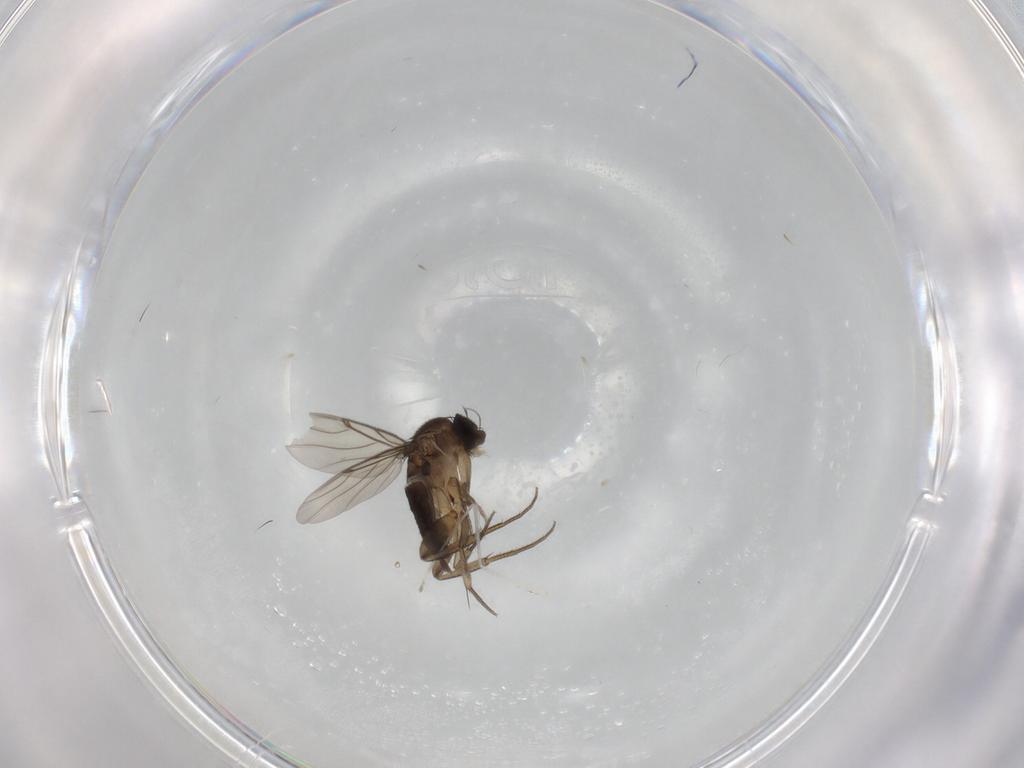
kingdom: Animalia
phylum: Arthropoda
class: Insecta
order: Diptera
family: Phoridae
